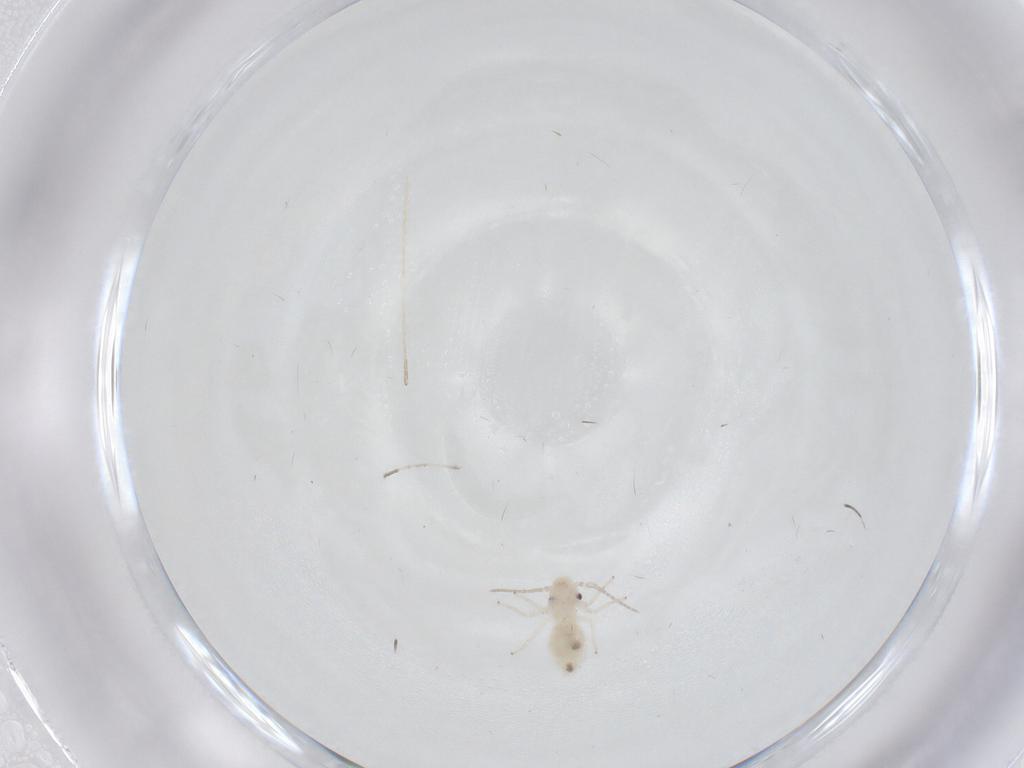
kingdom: Animalia
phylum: Arthropoda
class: Insecta
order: Psocodea
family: Caeciliusidae
